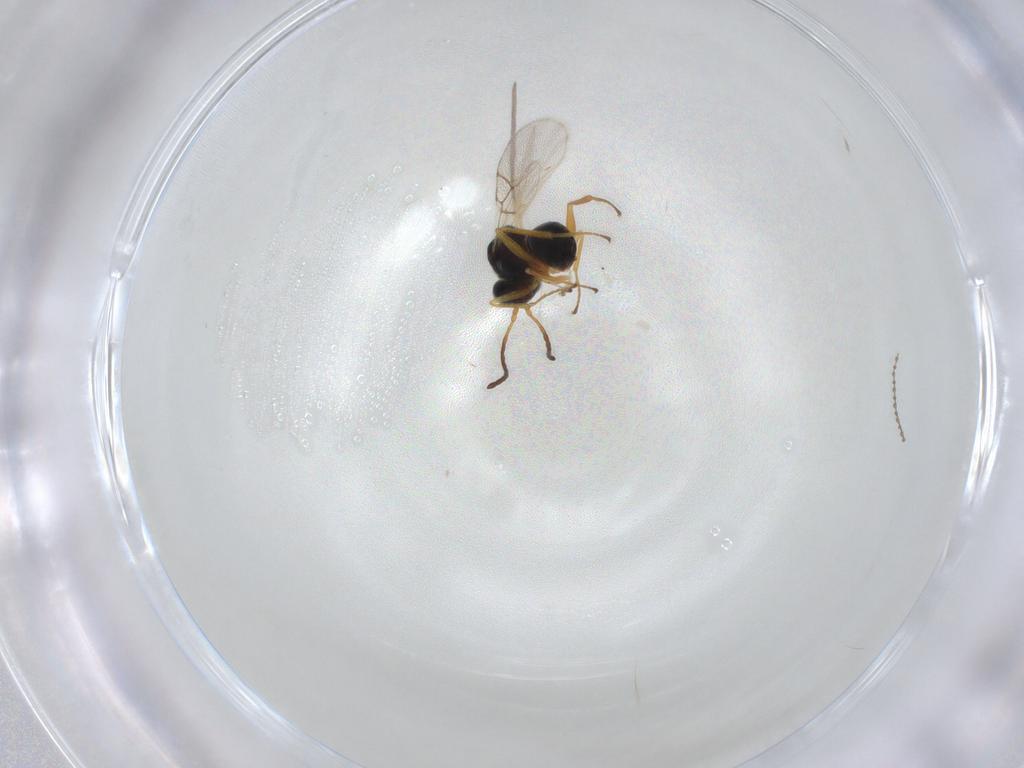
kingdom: Animalia
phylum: Arthropoda
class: Insecta
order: Hymenoptera
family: Figitidae
